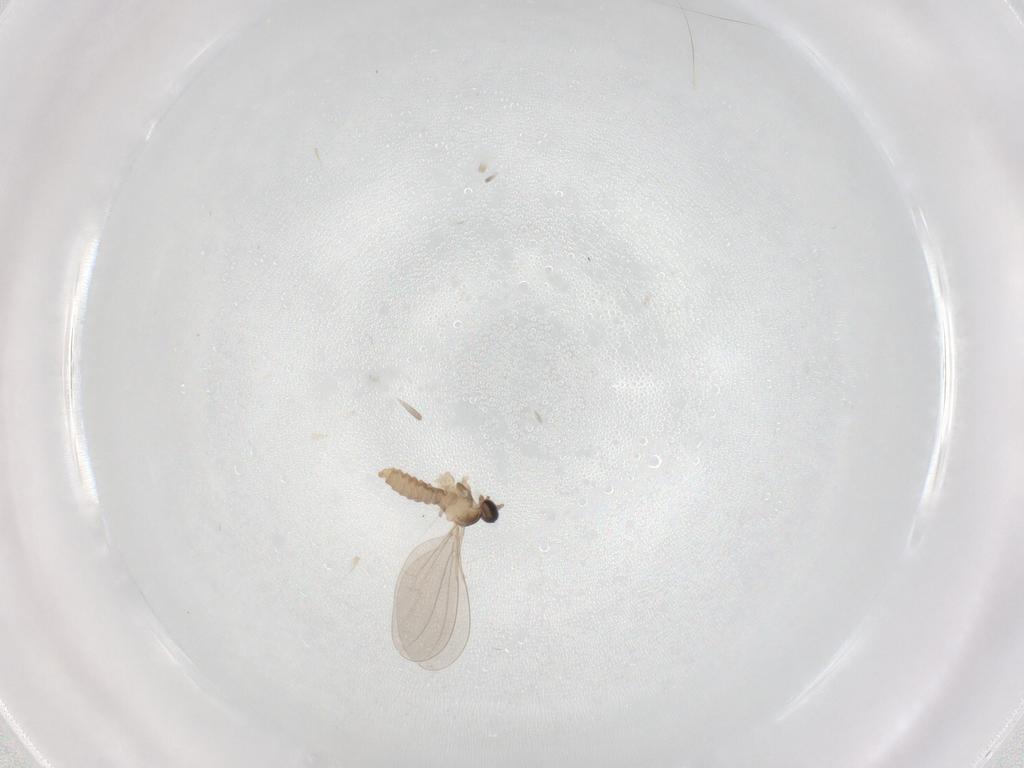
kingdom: Animalia
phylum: Arthropoda
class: Insecta
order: Diptera
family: Cecidomyiidae
